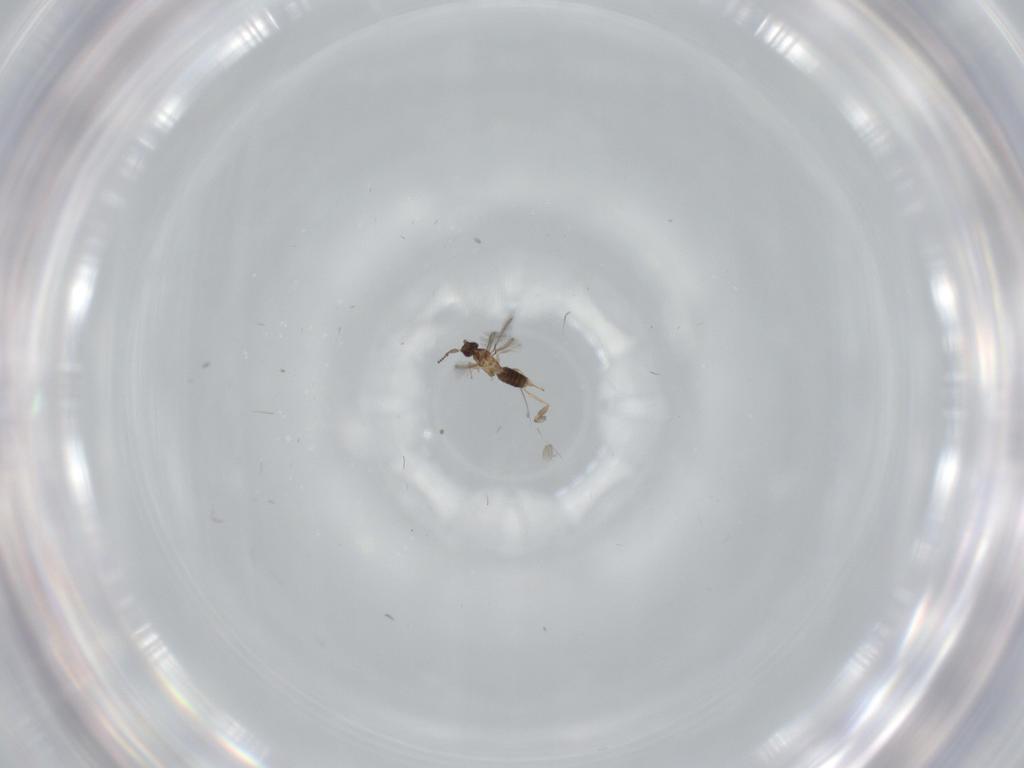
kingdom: Animalia
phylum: Arthropoda
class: Insecta
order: Hymenoptera
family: Mymaridae
